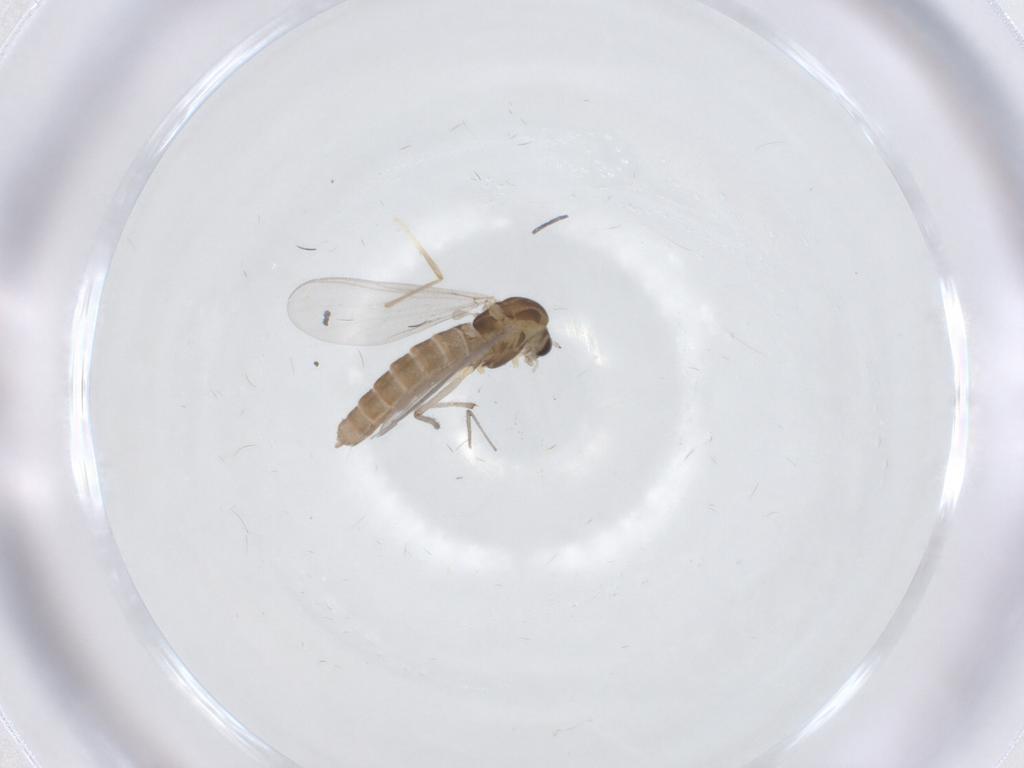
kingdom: Animalia
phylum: Arthropoda
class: Insecta
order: Diptera
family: Chironomidae
